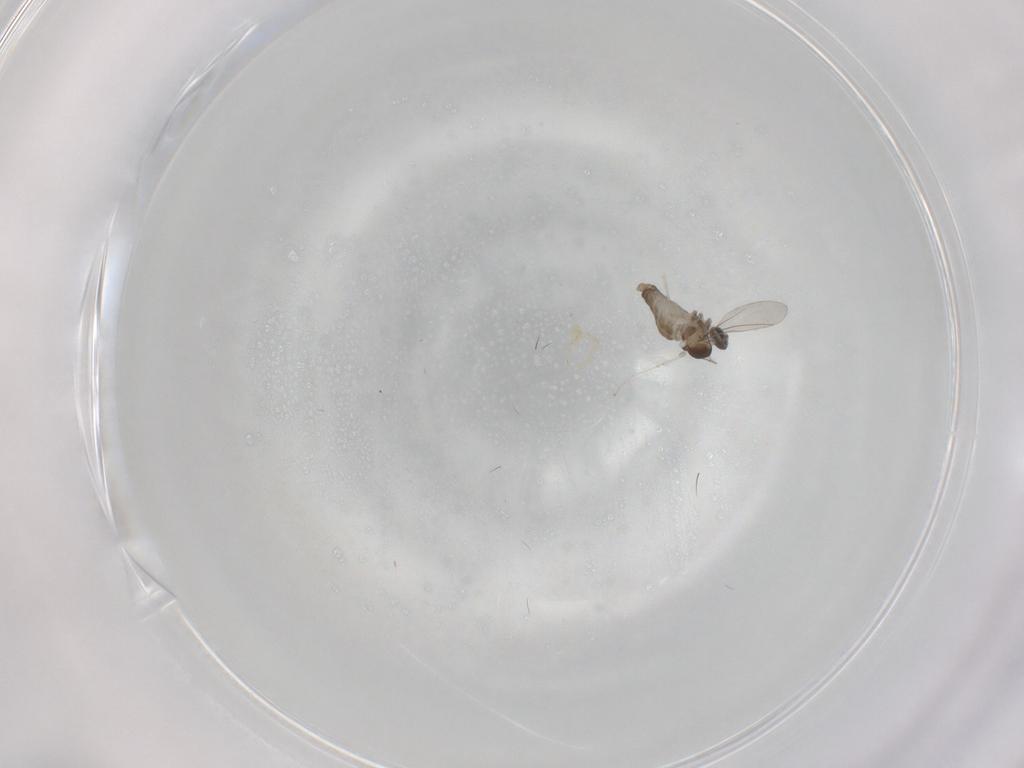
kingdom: Animalia
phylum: Arthropoda
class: Insecta
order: Diptera
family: Cecidomyiidae
